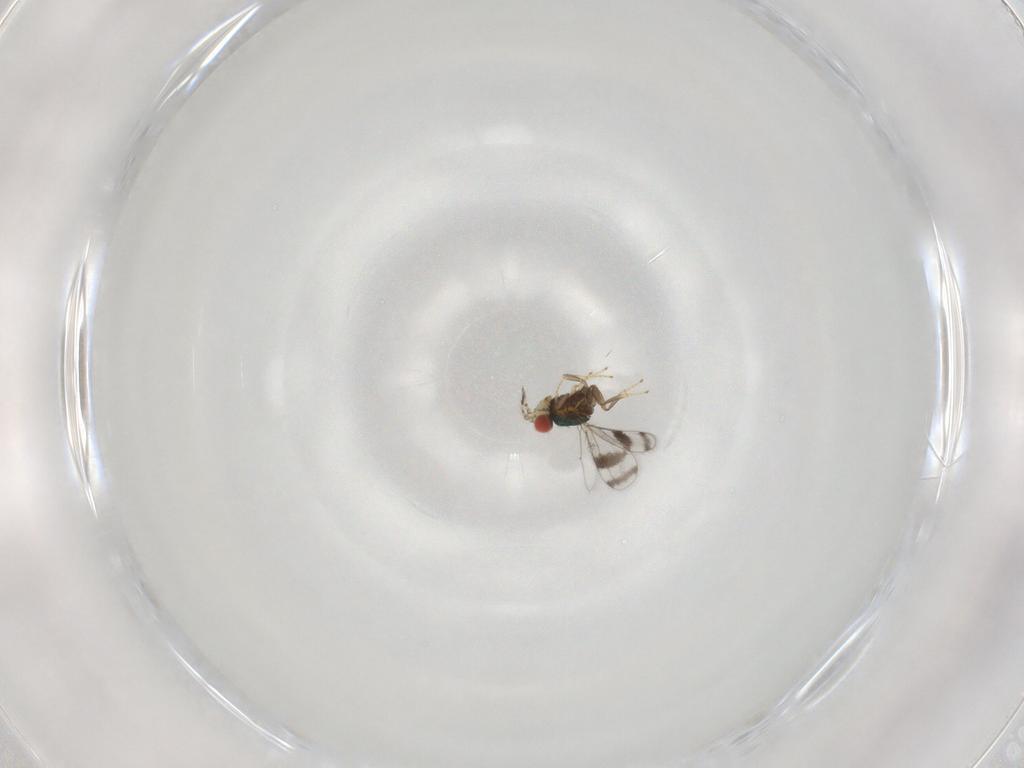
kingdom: Animalia
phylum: Arthropoda
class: Insecta
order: Hymenoptera
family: Eulophidae
